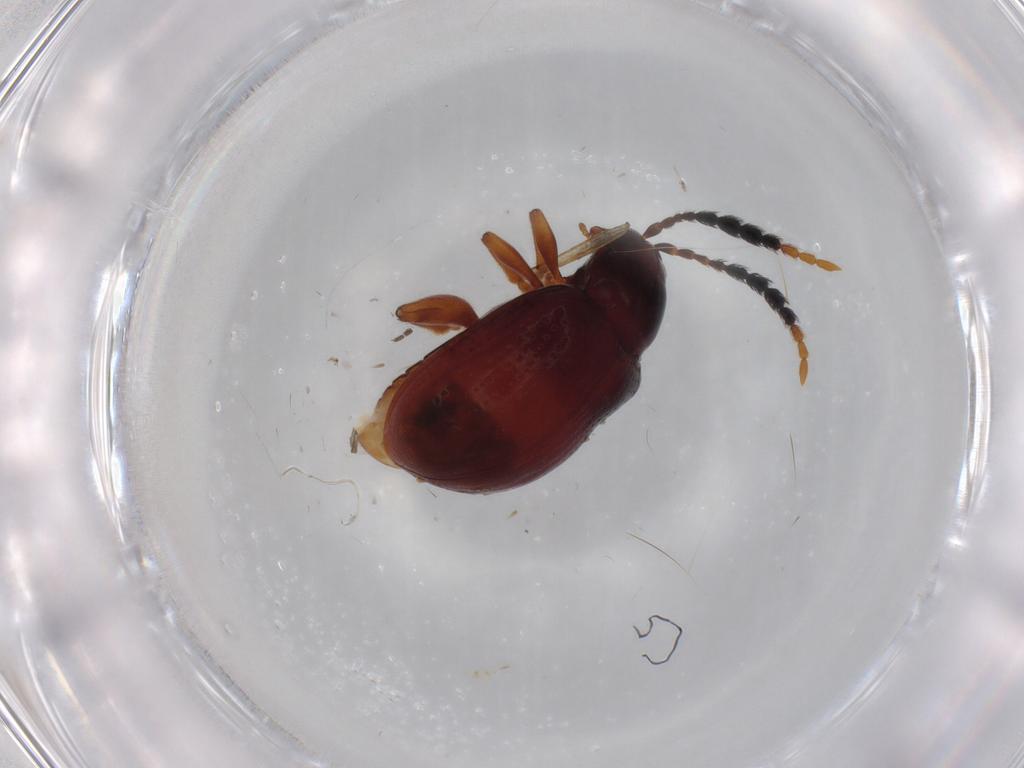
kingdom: Animalia
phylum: Arthropoda
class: Insecta
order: Coleoptera
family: Chrysomelidae
